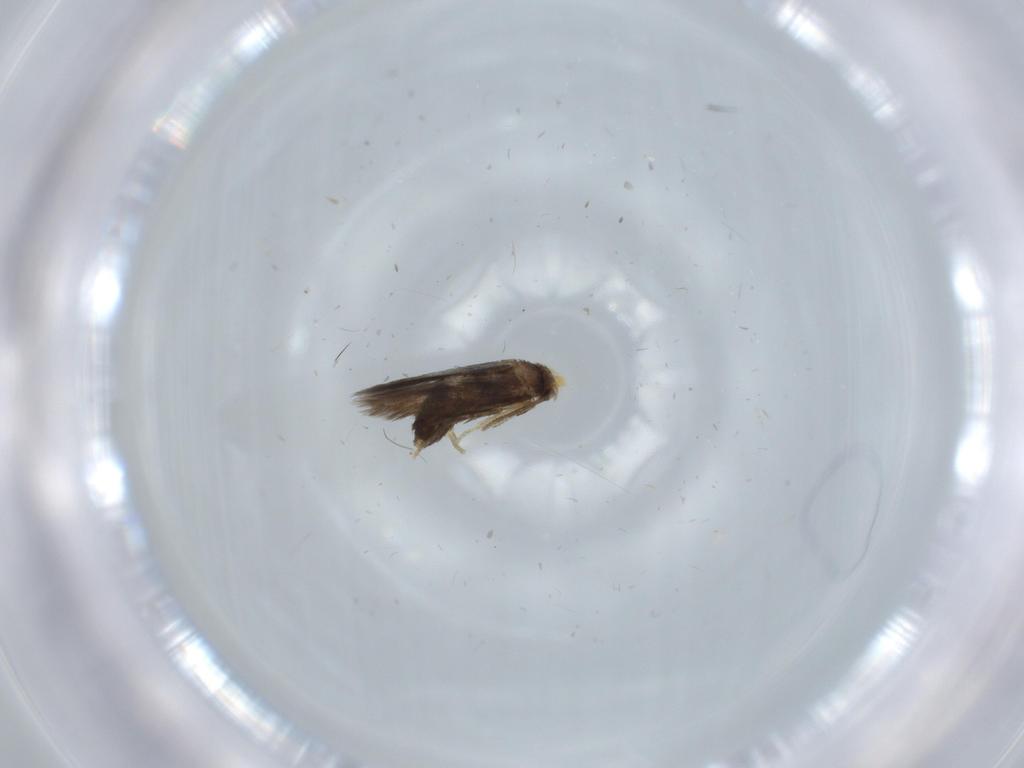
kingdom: Animalia
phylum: Arthropoda
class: Insecta
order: Lepidoptera
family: Nepticulidae
